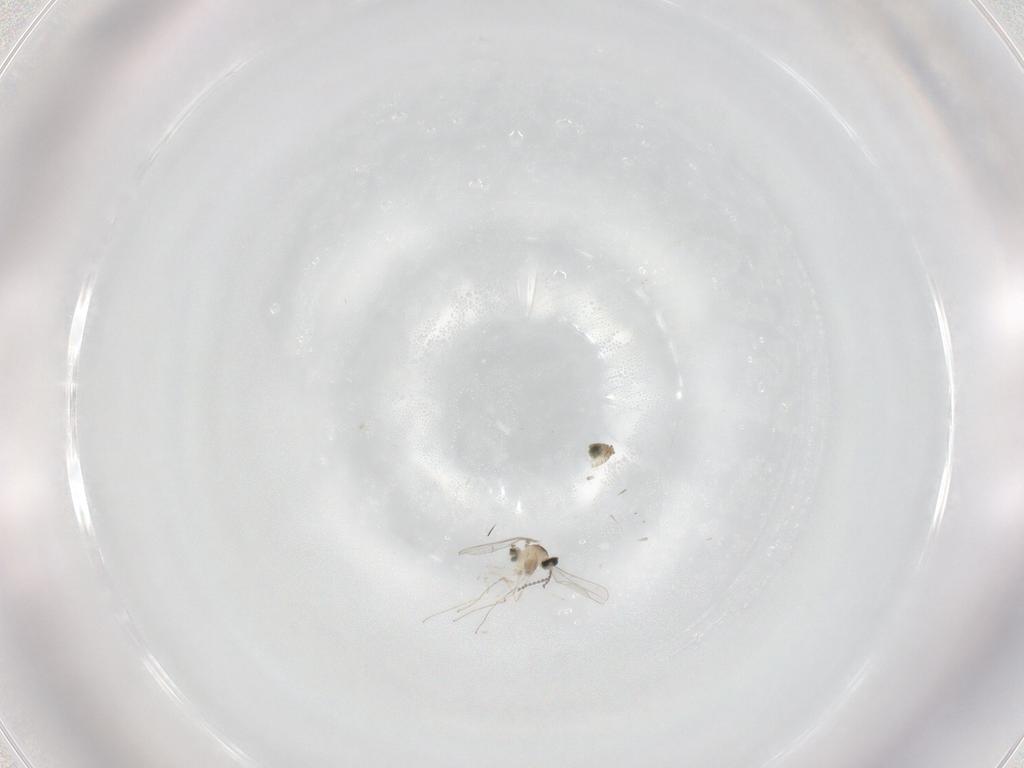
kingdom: Animalia
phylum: Arthropoda
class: Insecta
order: Diptera
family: Cecidomyiidae
